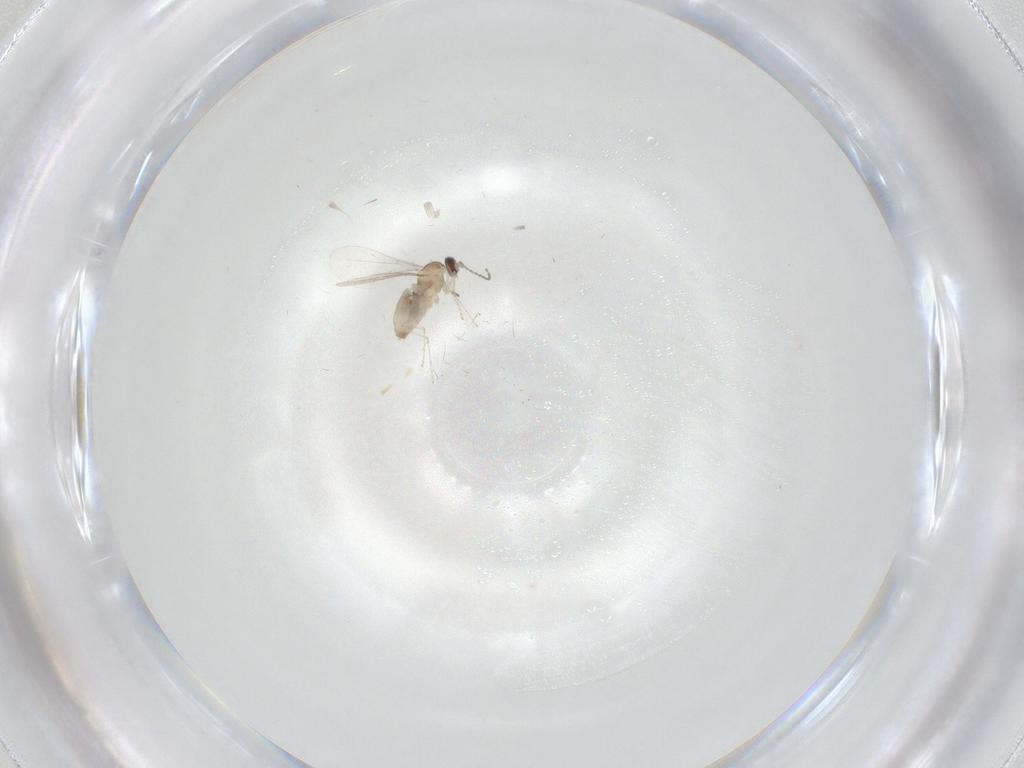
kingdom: Animalia
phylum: Arthropoda
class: Insecta
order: Diptera
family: Cecidomyiidae
